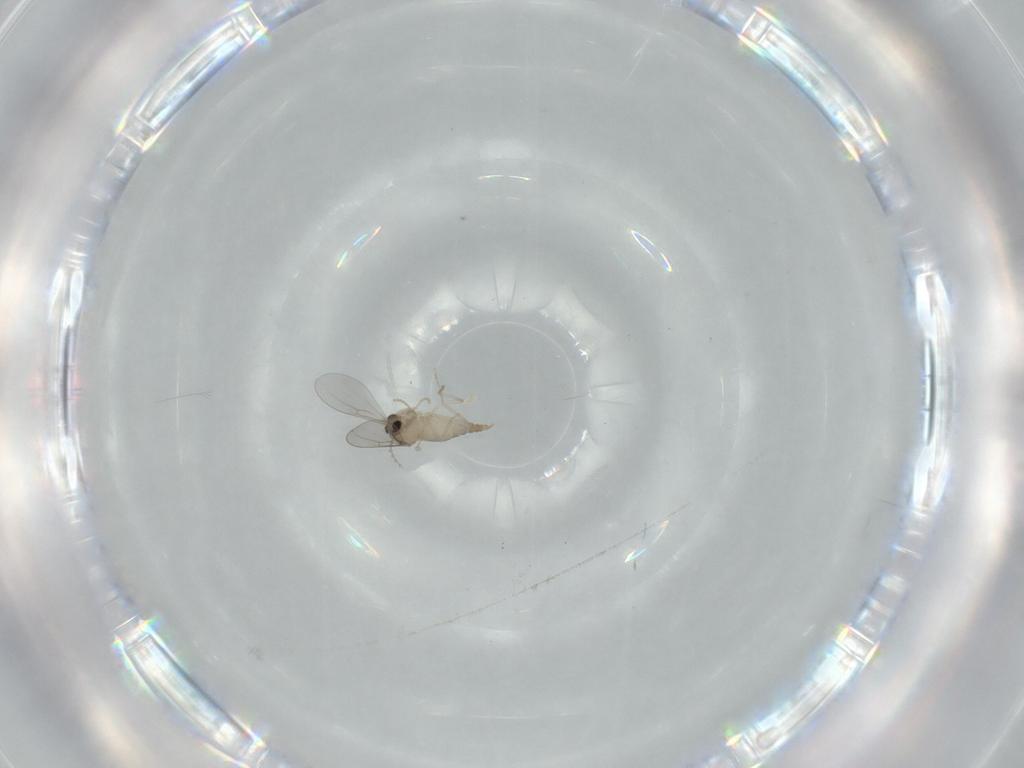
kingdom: Animalia
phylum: Arthropoda
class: Insecta
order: Diptera
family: Cecidomyiidae
